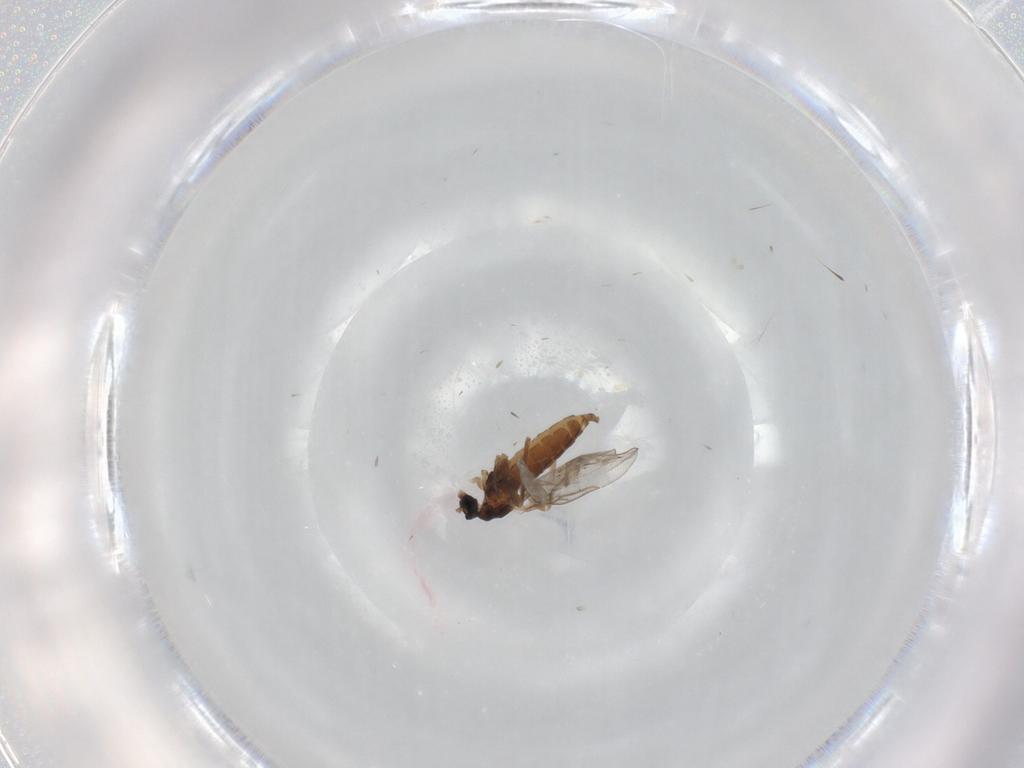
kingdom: Animalia
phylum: Arthropoda
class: Insecta
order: Diptera
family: Cecidomyiidae
